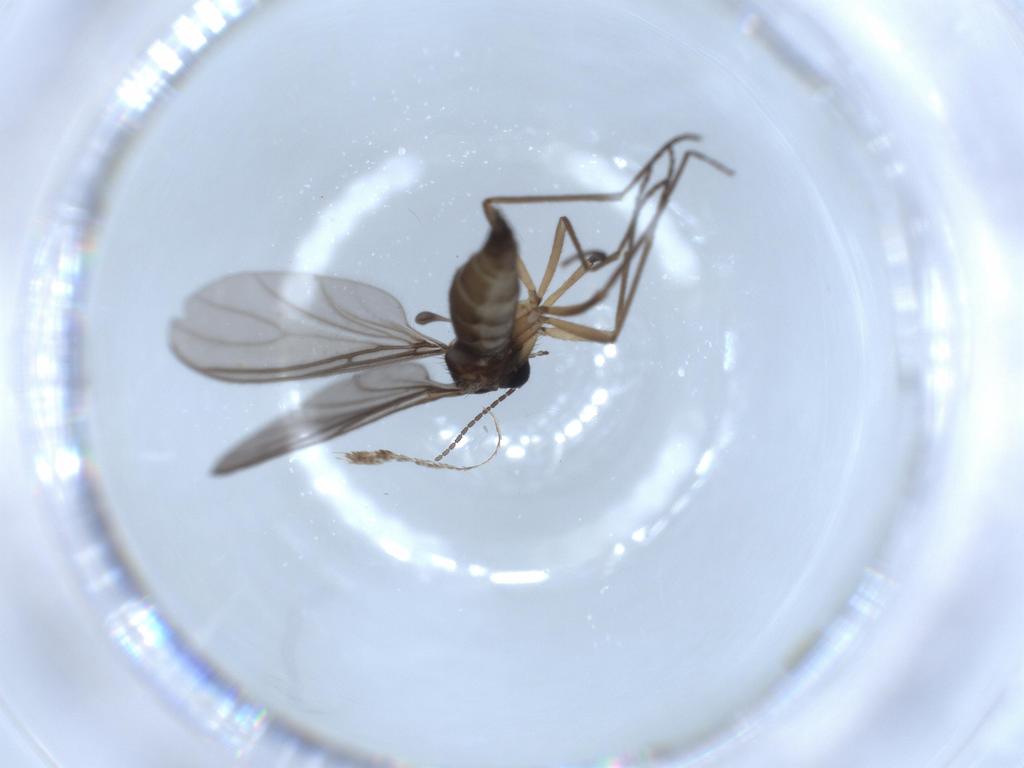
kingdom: Animalia
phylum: Arthropoda
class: Insecta
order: Diptera
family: Sciaridae
